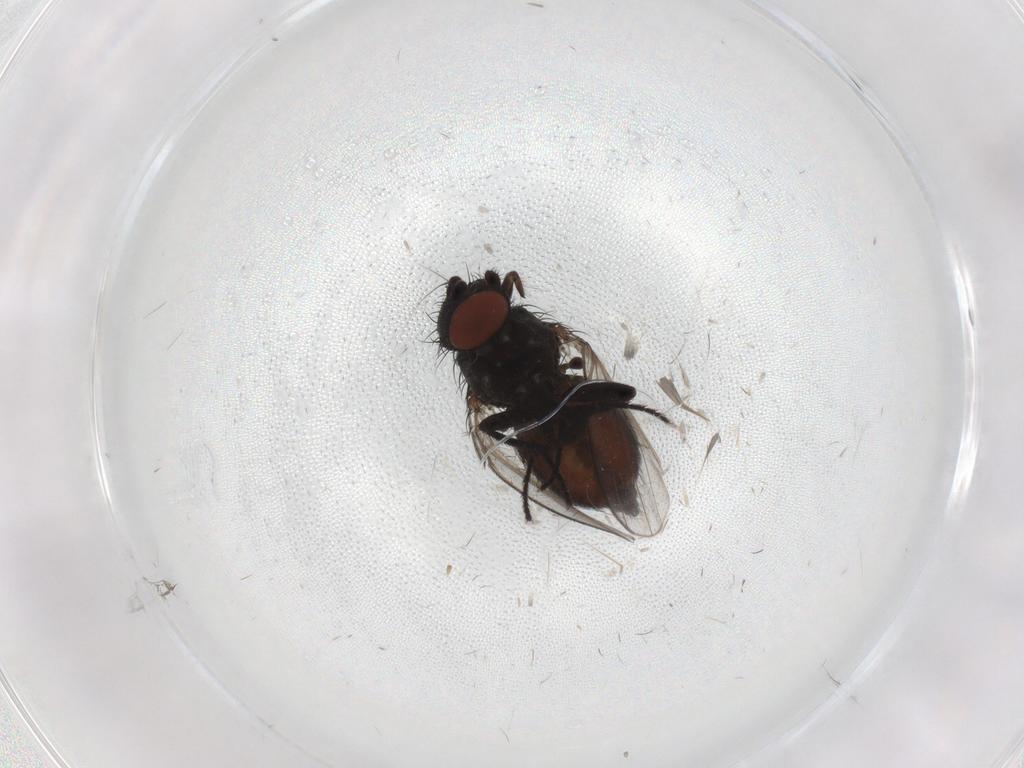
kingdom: Animalia
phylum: Arthropoda
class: Insecta
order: Diptera
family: Milichiidae
